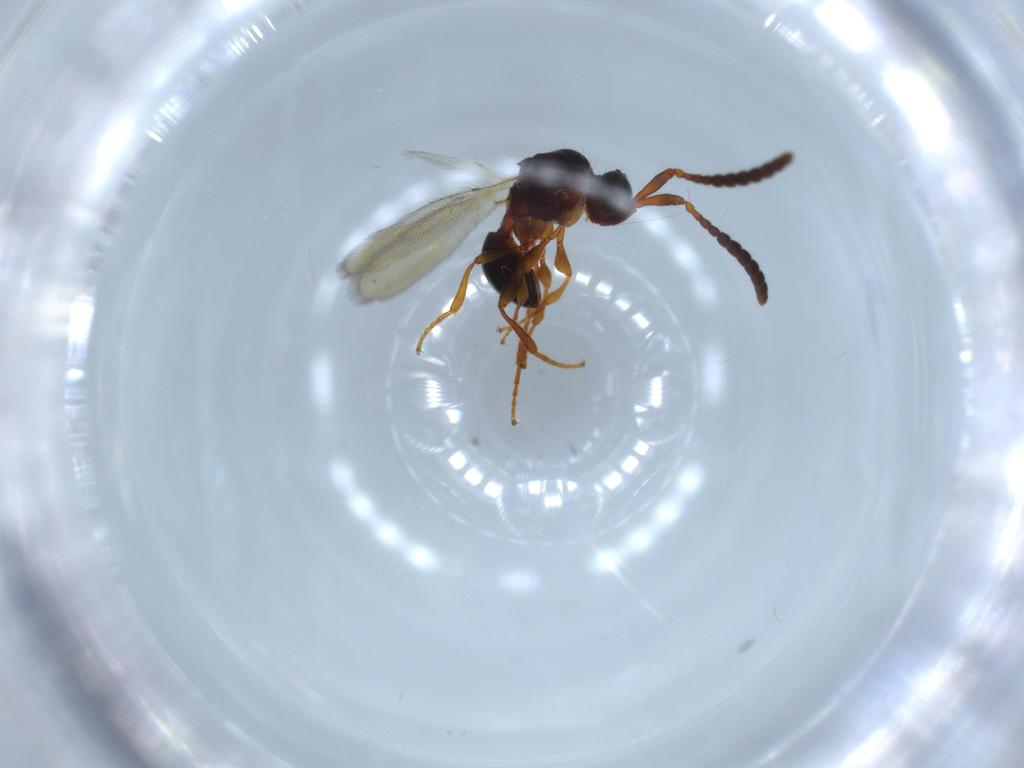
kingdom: Animalia
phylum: Arthropoda
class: Insecta
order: Hymenoptera
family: Diapriidae
